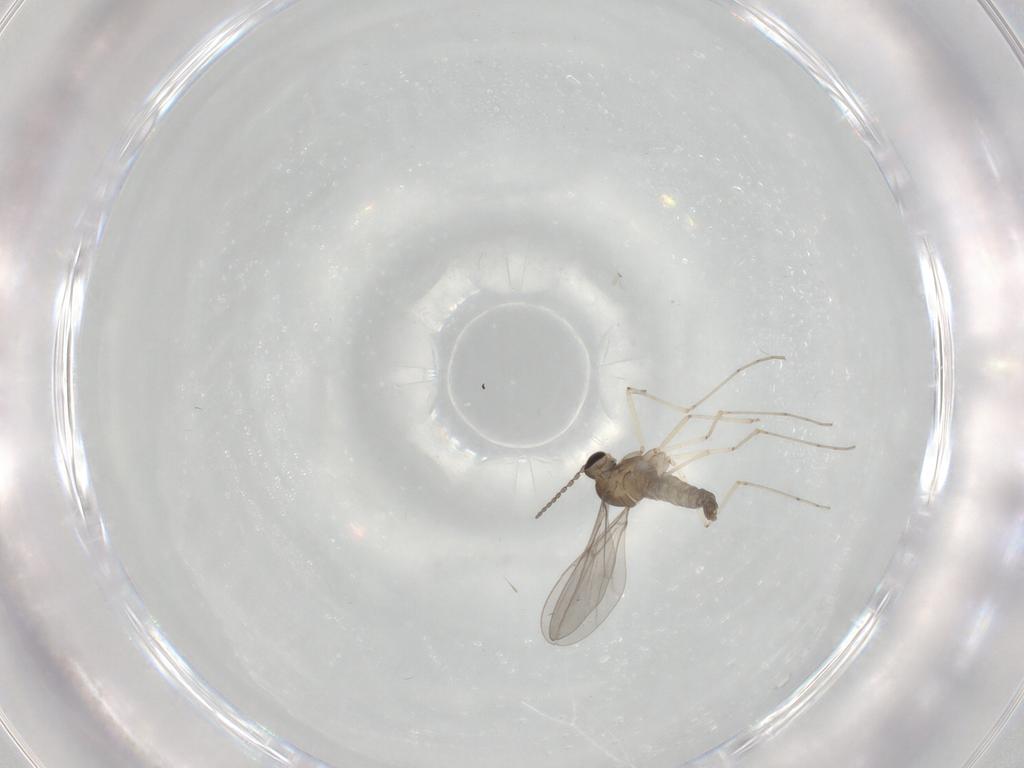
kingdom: Animalia
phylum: Arthropoda
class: Insecta
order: Diptera
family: Cecidomyiidae
